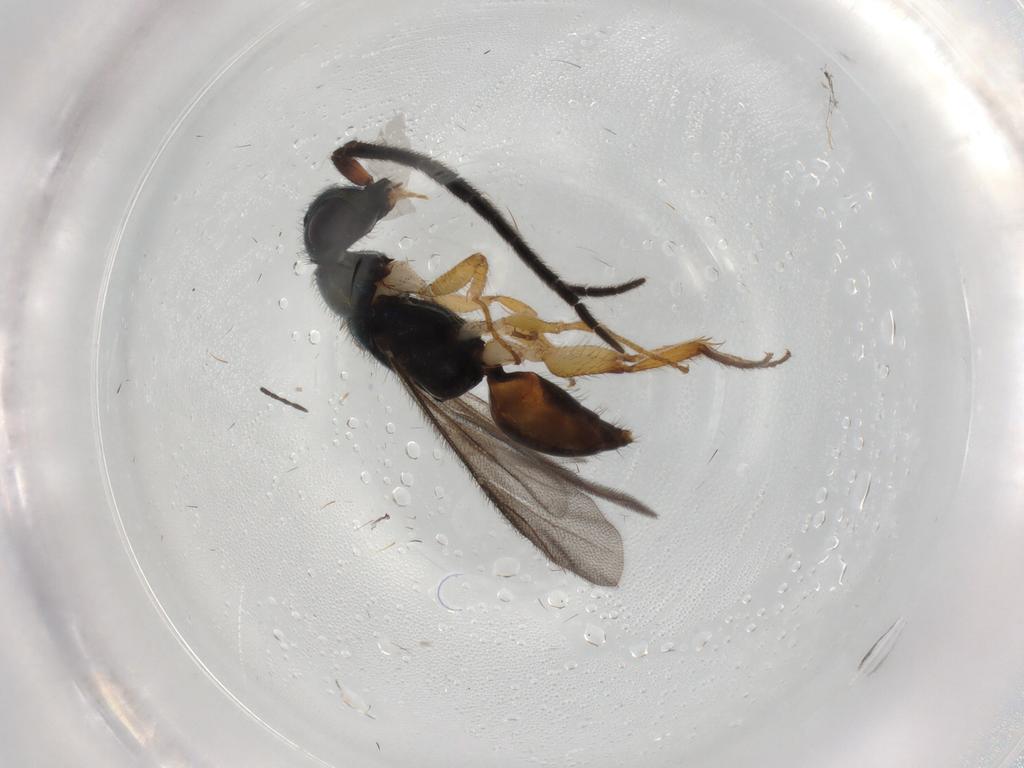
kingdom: Animalia
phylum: Arthropoda
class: Insecta
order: Hymenoptera
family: Chrysididae
